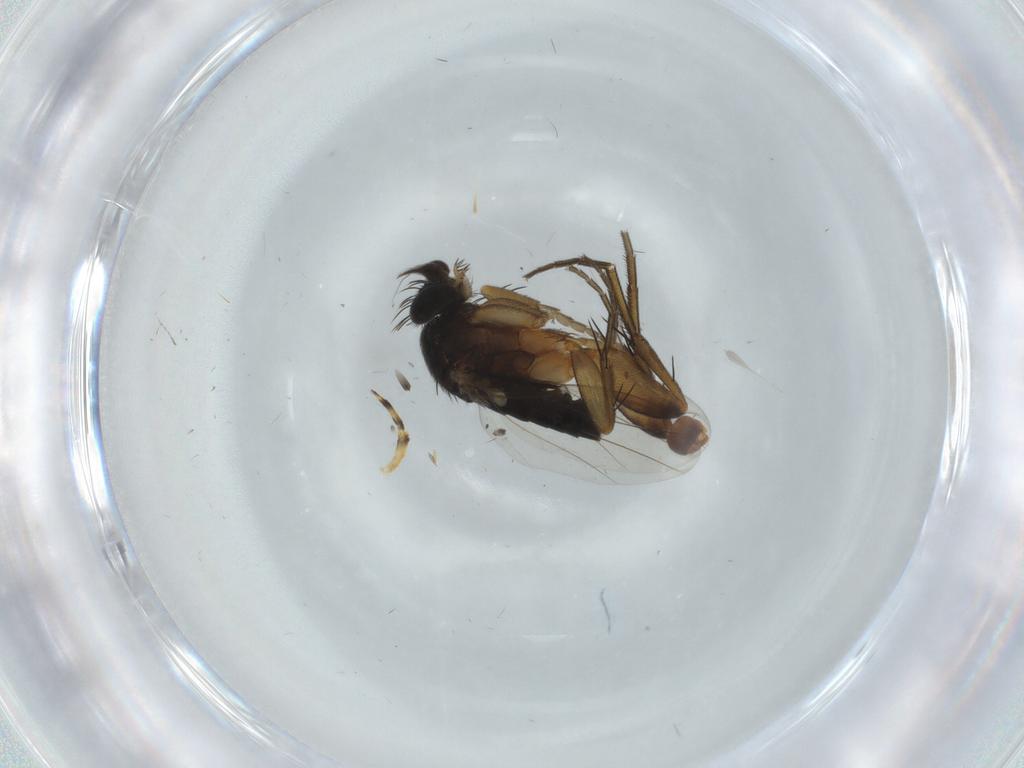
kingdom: Animalia
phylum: Arthropoda
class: Insecta
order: Diptera
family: Phoridae
